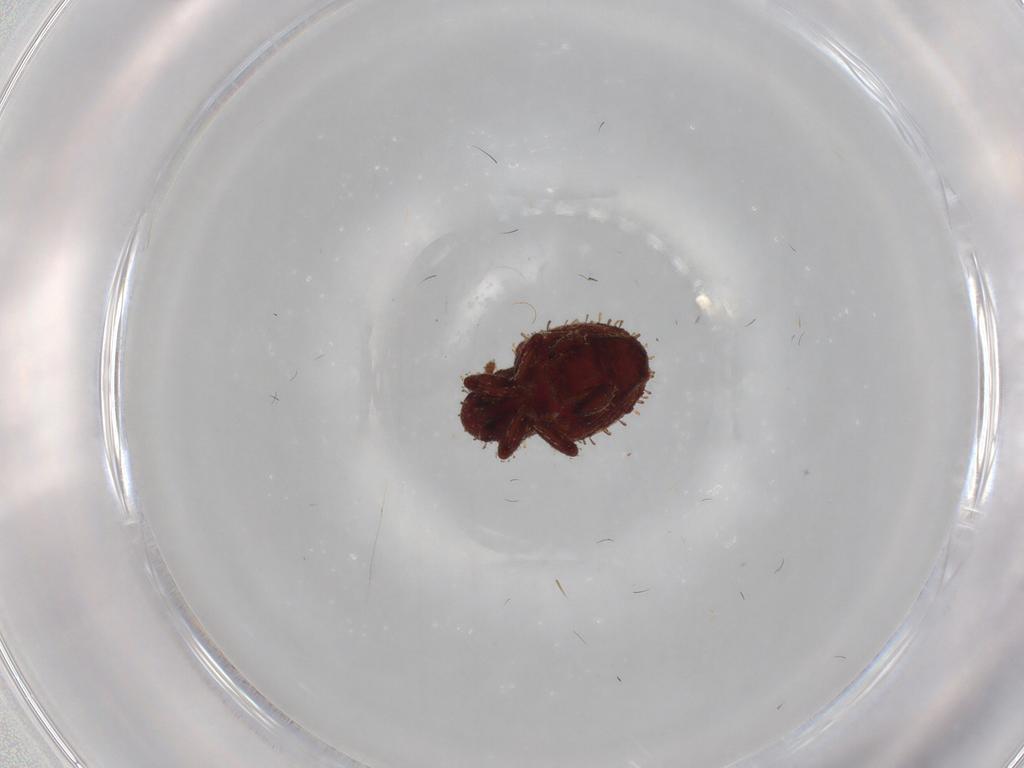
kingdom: Animalia
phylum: Arthropoda
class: Insecta
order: Coleoptera
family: Curculionidae
